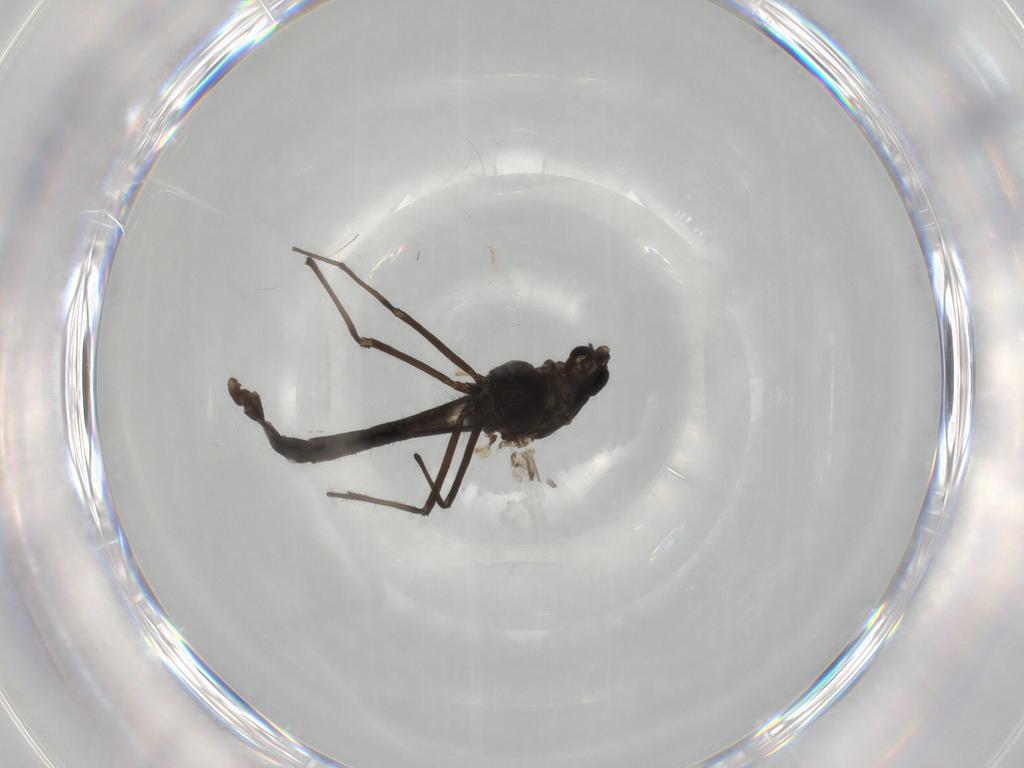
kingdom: Animalia
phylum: Arthropoda
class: Insecta
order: Diptera
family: Chironomidae
